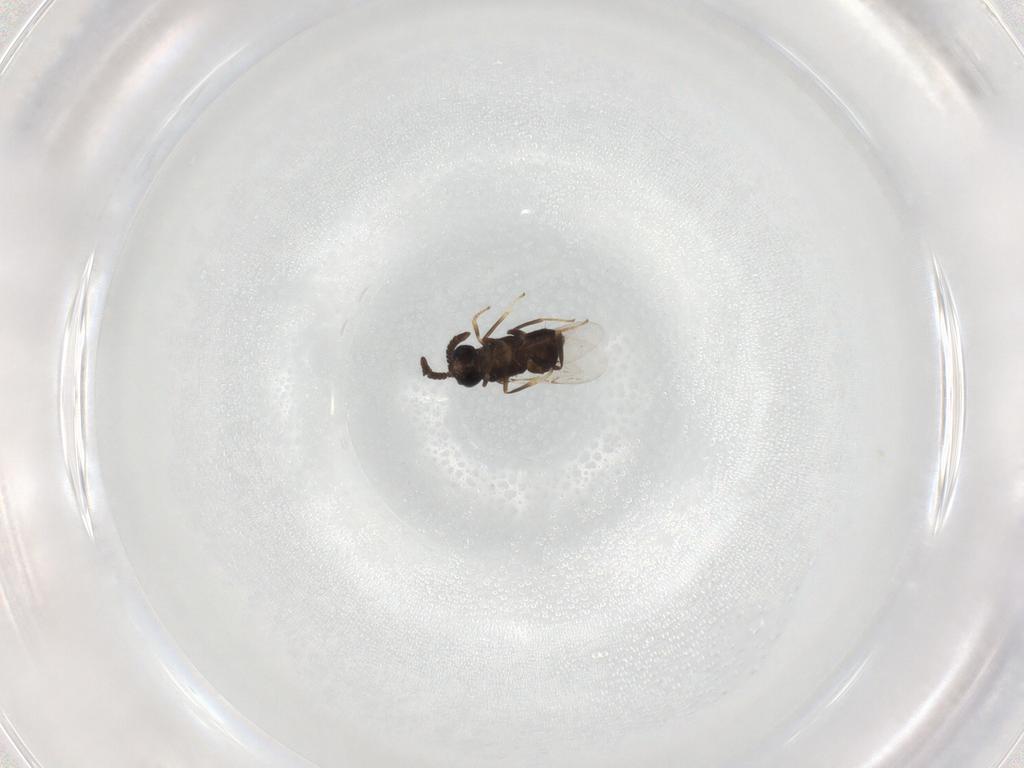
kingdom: Animalia
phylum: Arthropoda
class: Insecta
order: Hymenoptera
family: Encyrtidae
